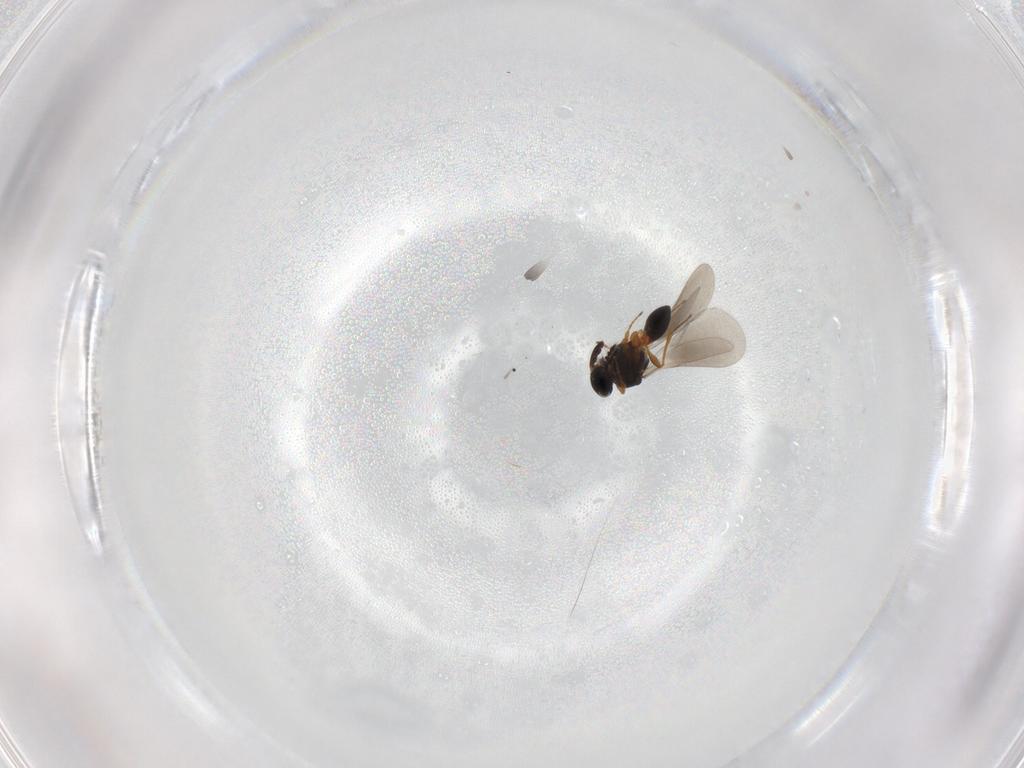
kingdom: Animalia
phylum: Arthropoda
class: Insecta
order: Hymenoptera
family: Platygastridae
